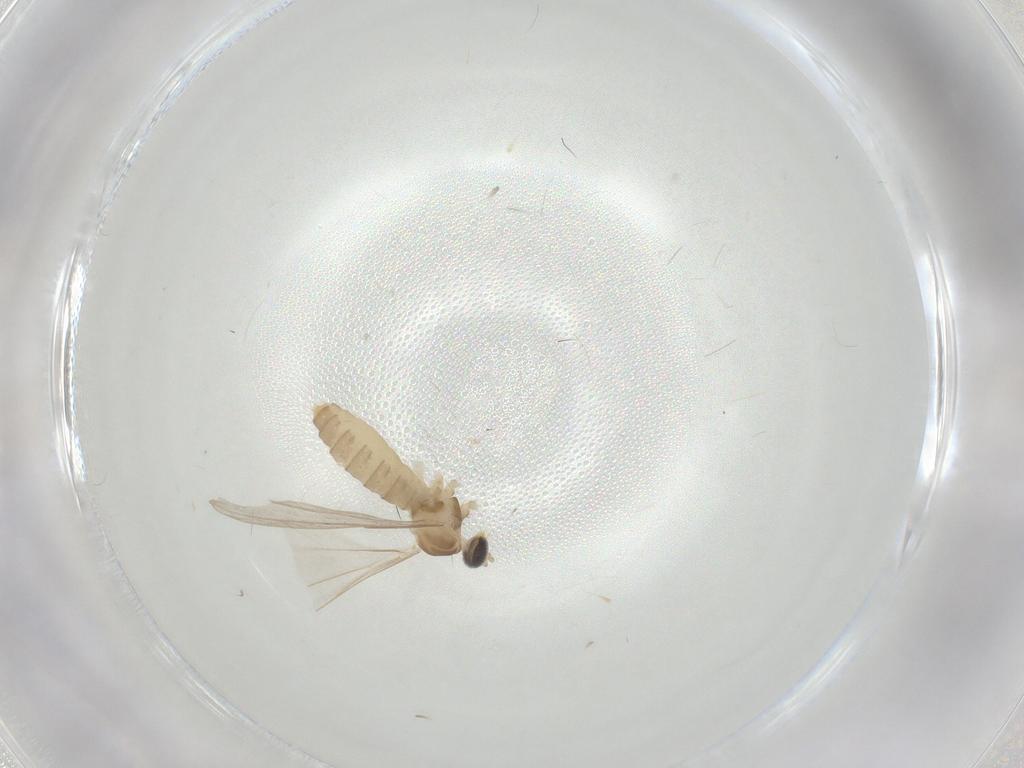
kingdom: Animalia
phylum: Arthropoda
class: Insecta
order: Diptera
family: Cecidomyiidae
